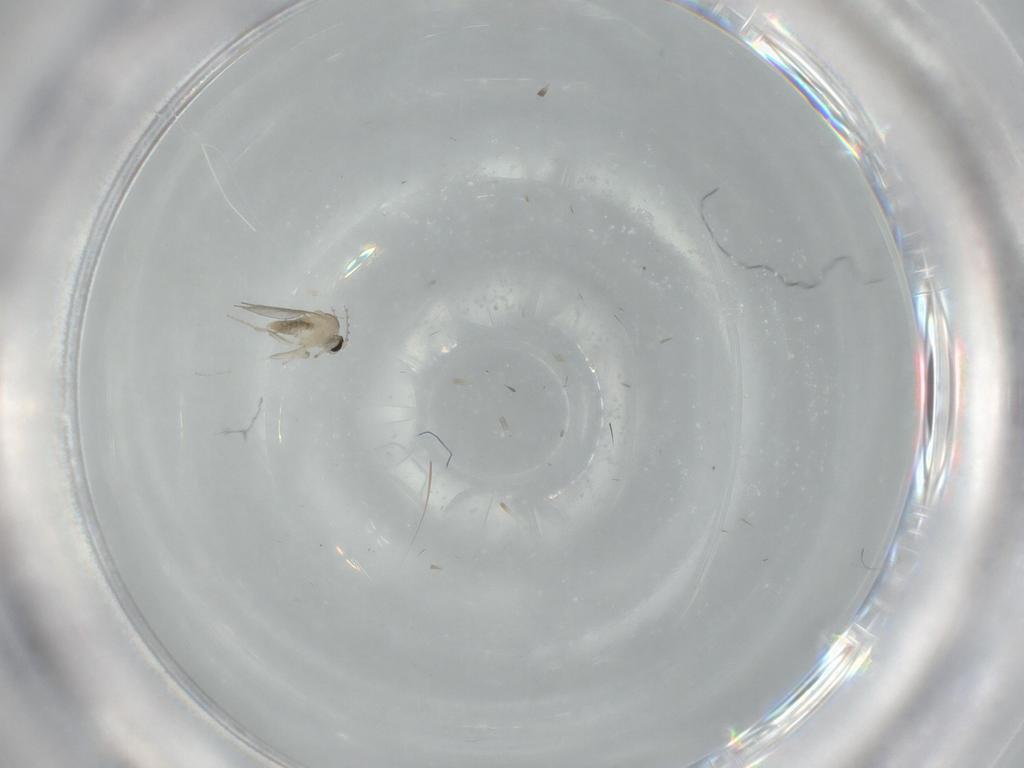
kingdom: Animalia
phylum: Arthropoda
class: Insecta
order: Diptera
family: Cecidomyiidae
